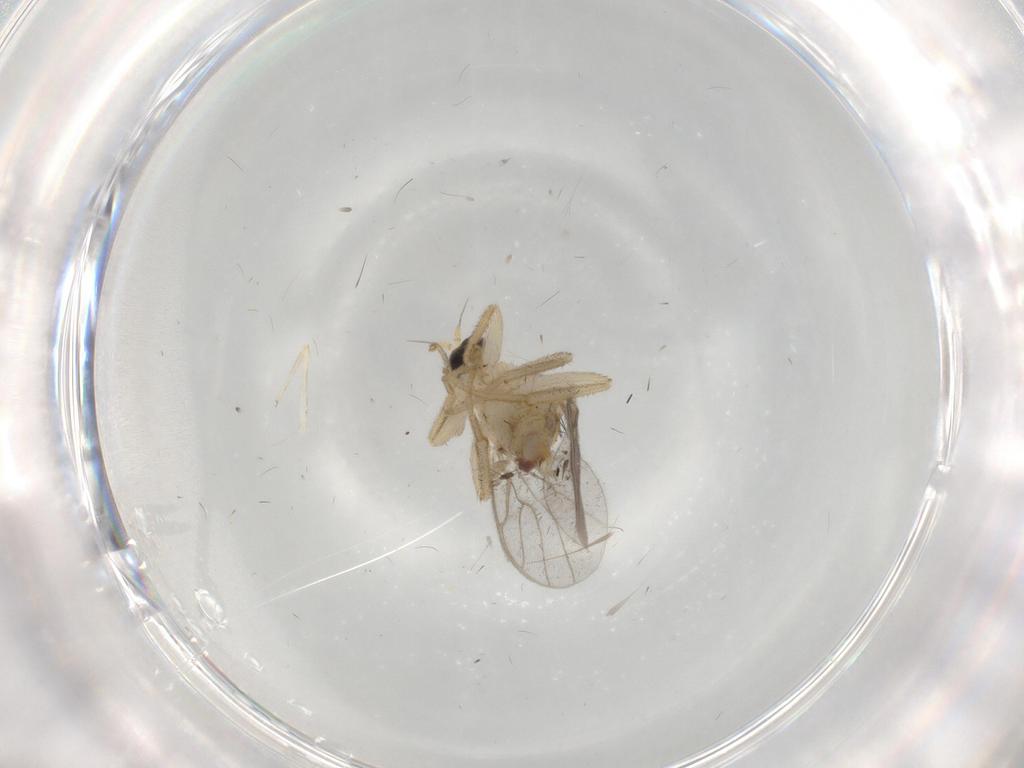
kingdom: Animalia
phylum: Arthropoda
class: Insecta
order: Diptera
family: Hybotidae
